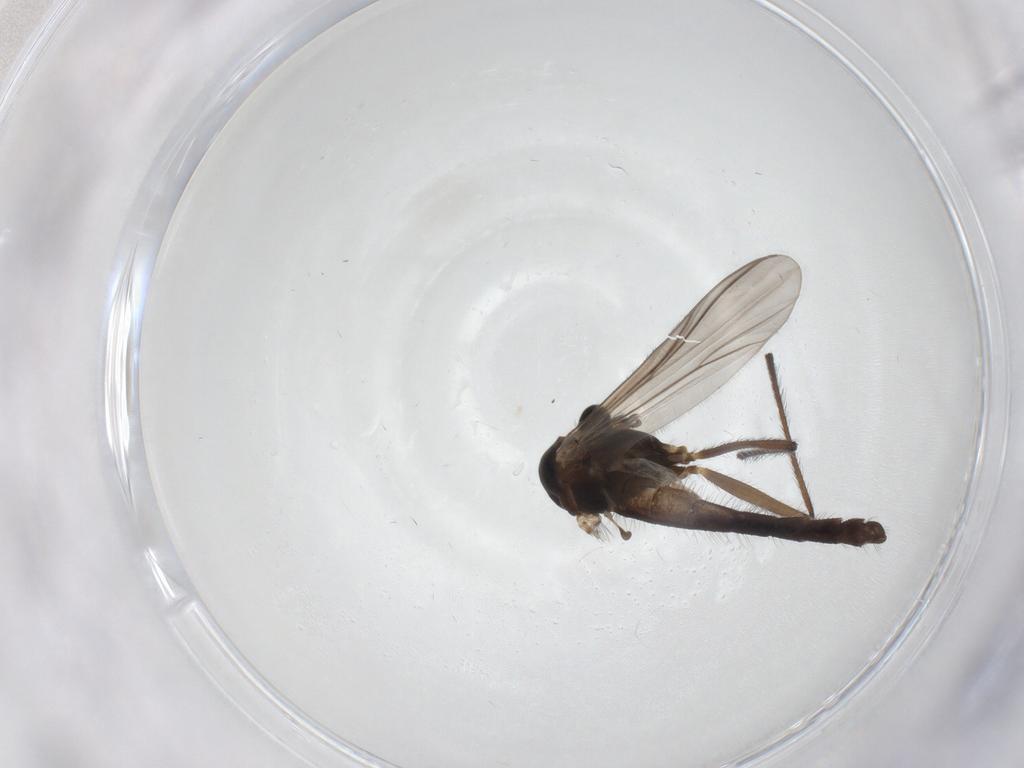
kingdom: Animalia
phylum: Arthropoda
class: Insecta
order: Diptera
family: Chironomidae
